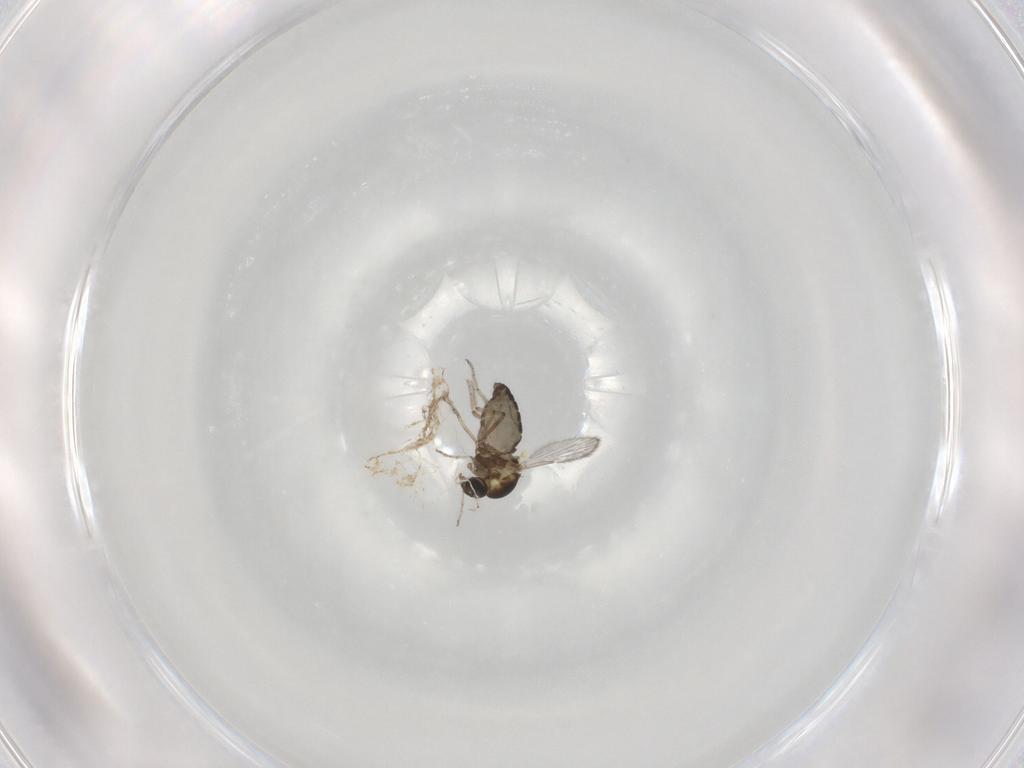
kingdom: Animalia
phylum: Arthropoda
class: Insecta
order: Diptera
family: Ceratopogonidae
